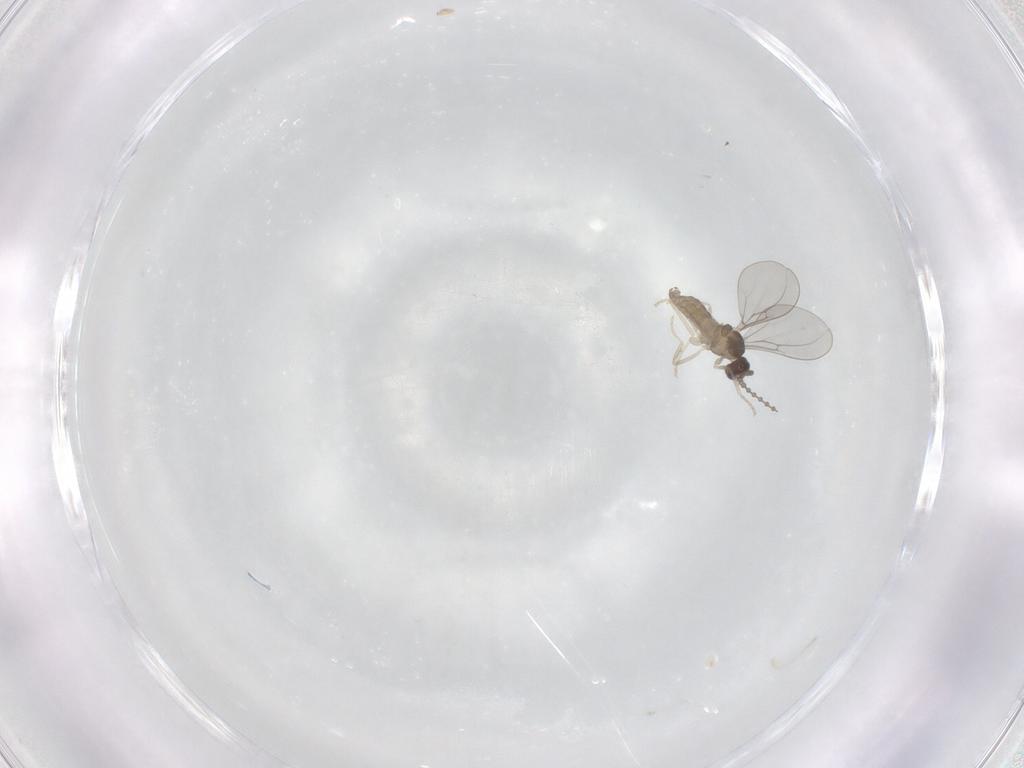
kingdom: Animalia
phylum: Arthropoda
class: Insecta
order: Diptera
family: Cecidomyiidae
